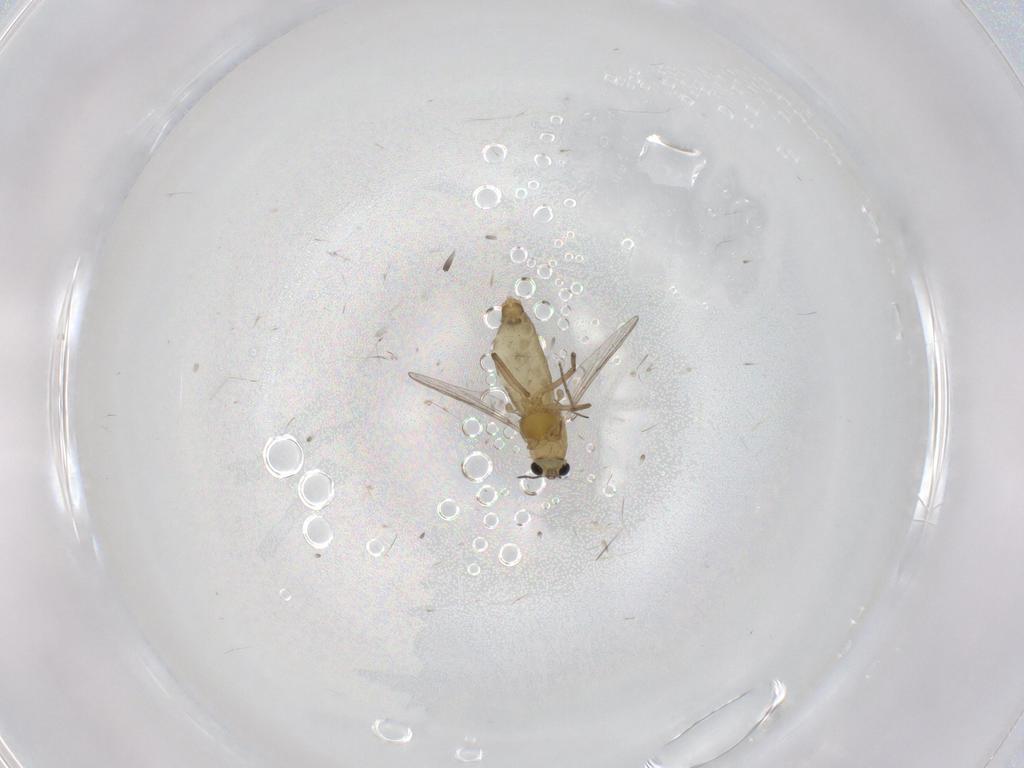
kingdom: Animalia
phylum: Arthropoda
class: Insecta
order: Diptera
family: Chironomidae
